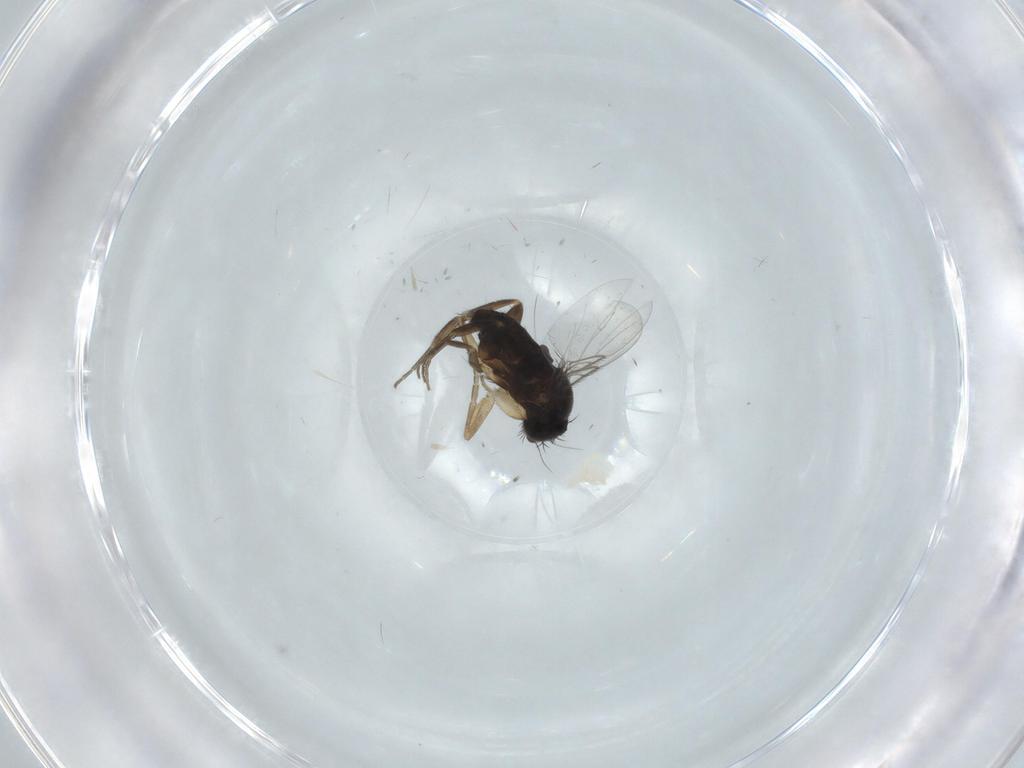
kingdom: Animalia
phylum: Arthropoda
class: Insecta
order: Diptera
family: Phoridae
